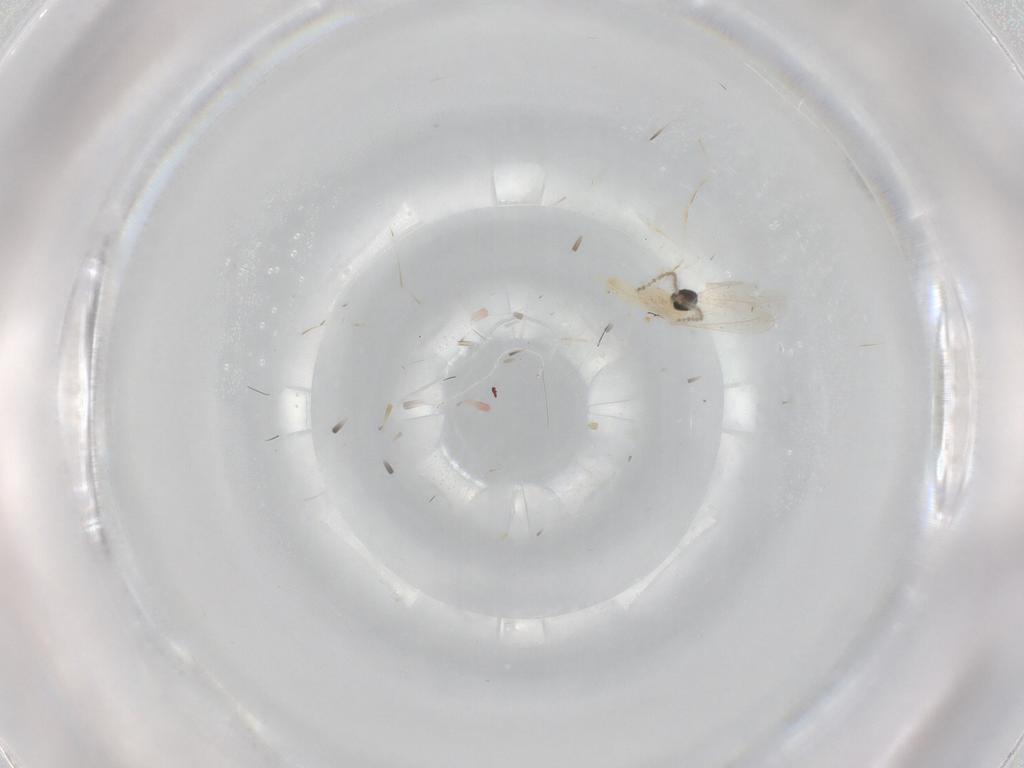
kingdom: Animalia
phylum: Arthropoda
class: Insecta
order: Diptera
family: Cecidomyiidae
